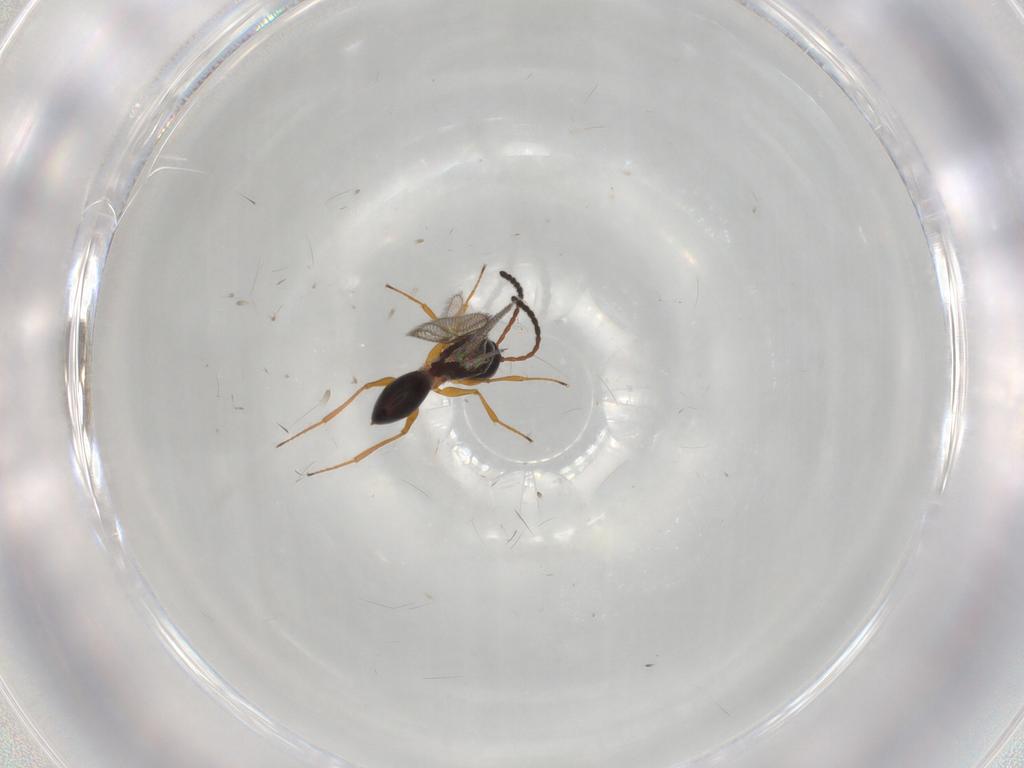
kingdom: Animalia
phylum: Arthropoda
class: Insecta
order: Hymenoptera
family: Figitidae
